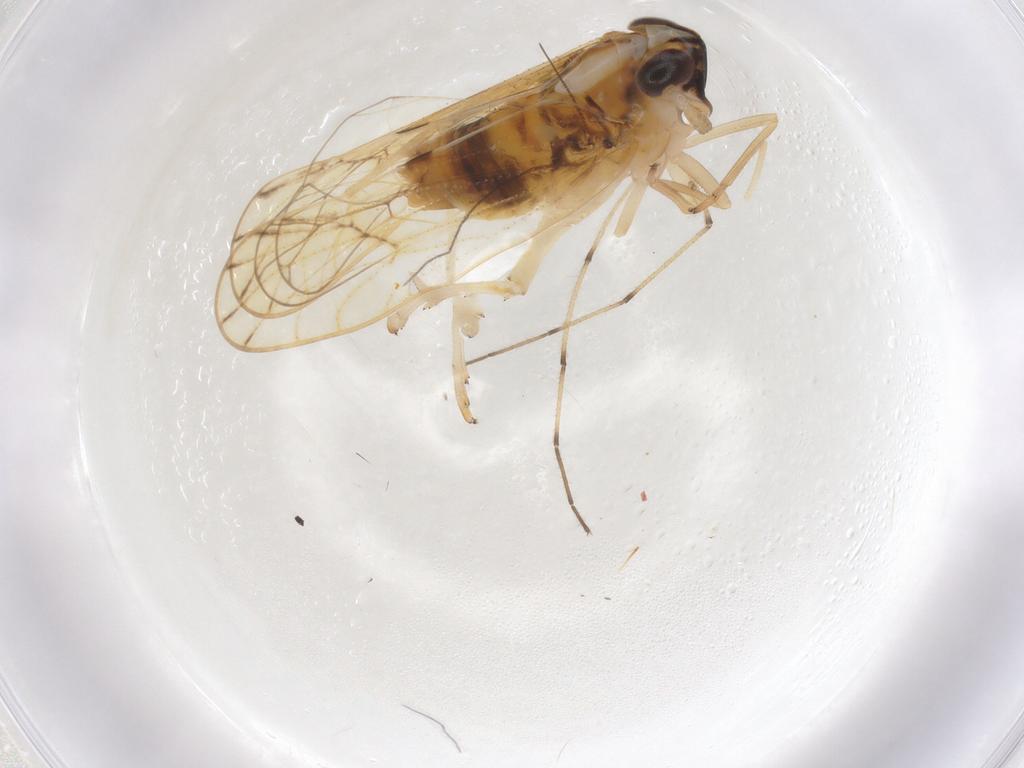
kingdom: Animalia
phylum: Arthropoda
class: Insecta
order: Hemiptera
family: Delphacidae
